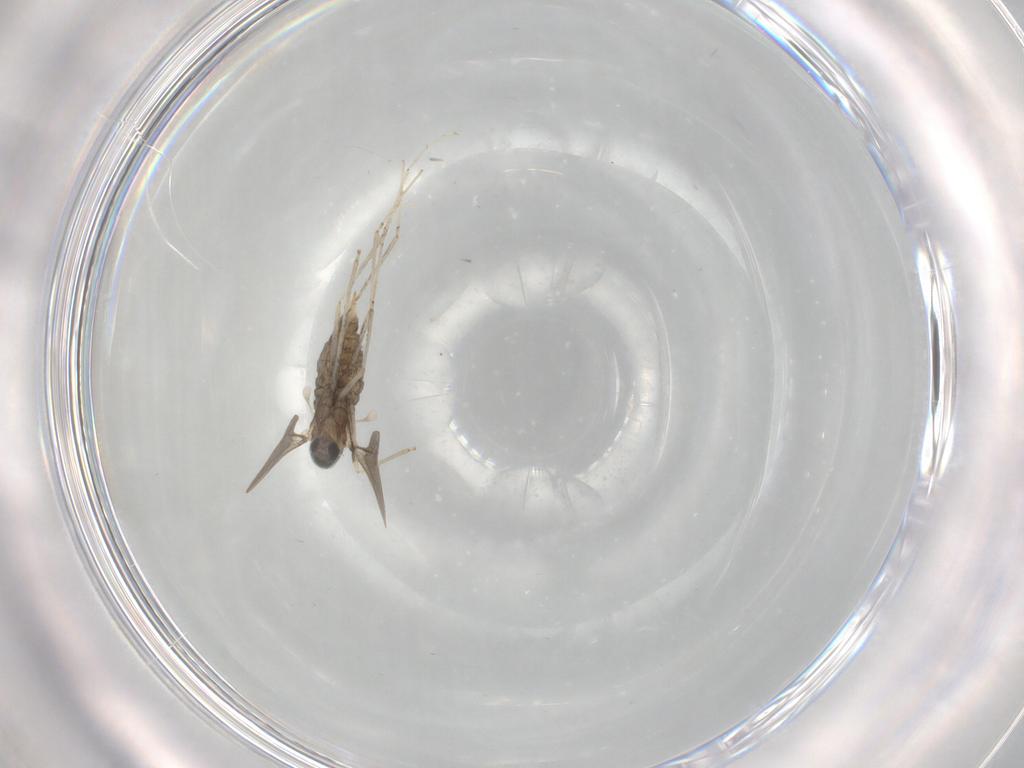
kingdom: Animalia
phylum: Arthropoda
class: Insecta
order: Diptera
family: Cecidomyiidae
